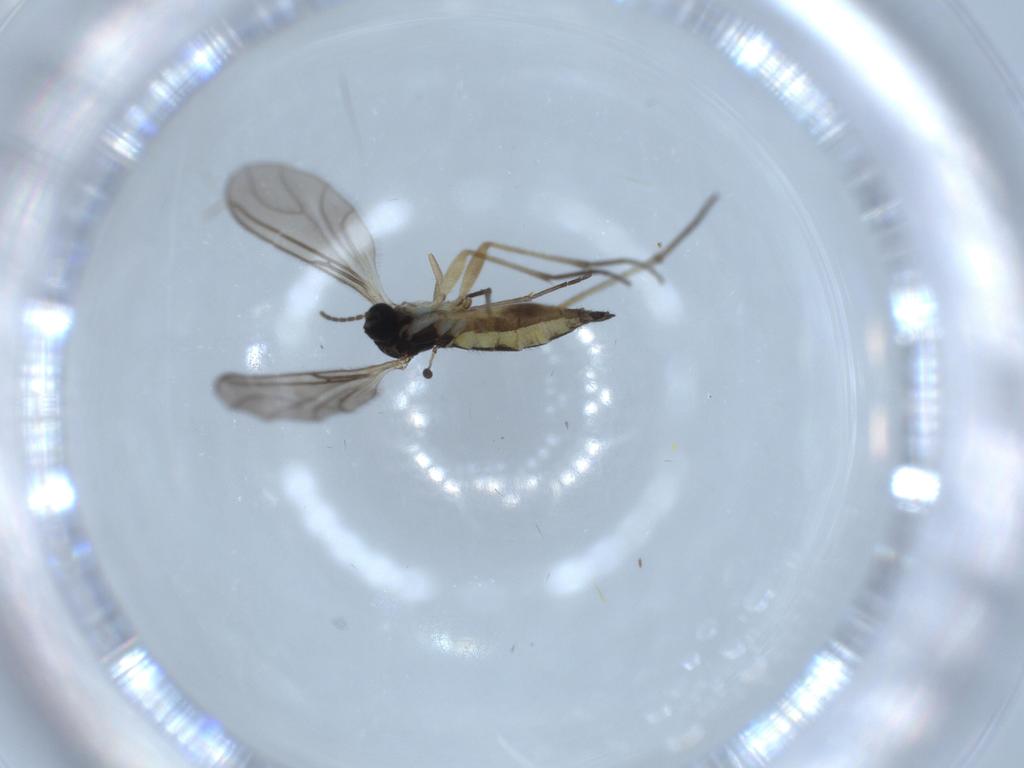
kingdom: Animalia
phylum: Arthropoda
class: Insecta
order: Diptera
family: Sciaridae
